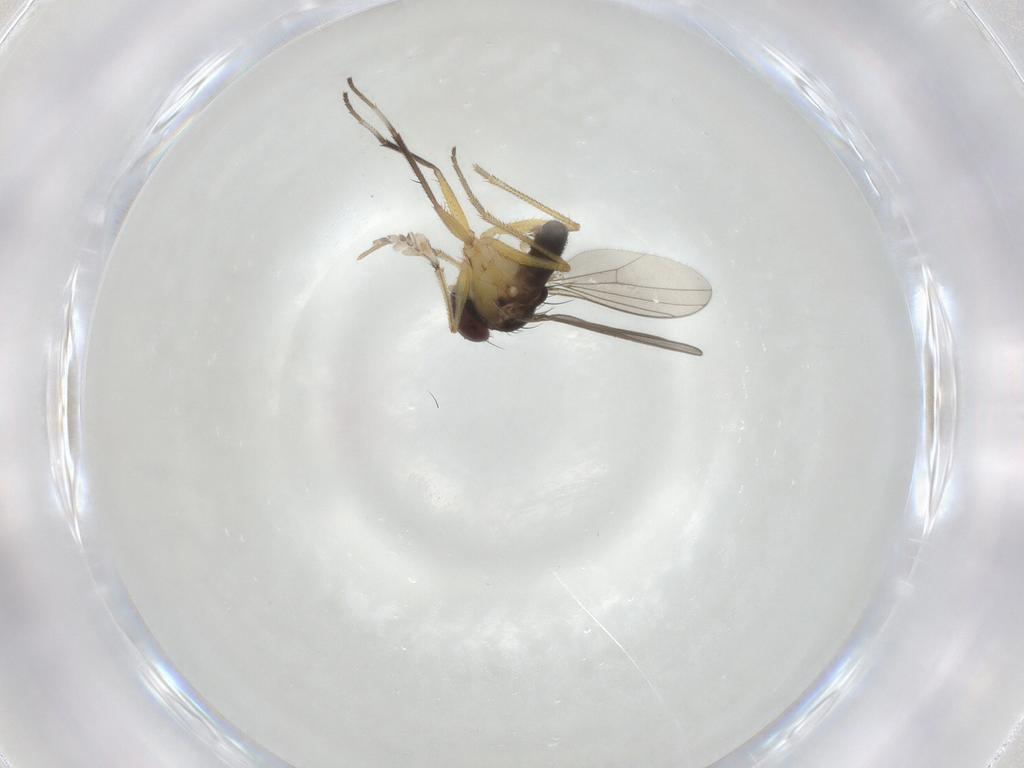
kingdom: Animalia
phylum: Arthropoda
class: Insecta
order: Diptera
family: Dolichopodidae
